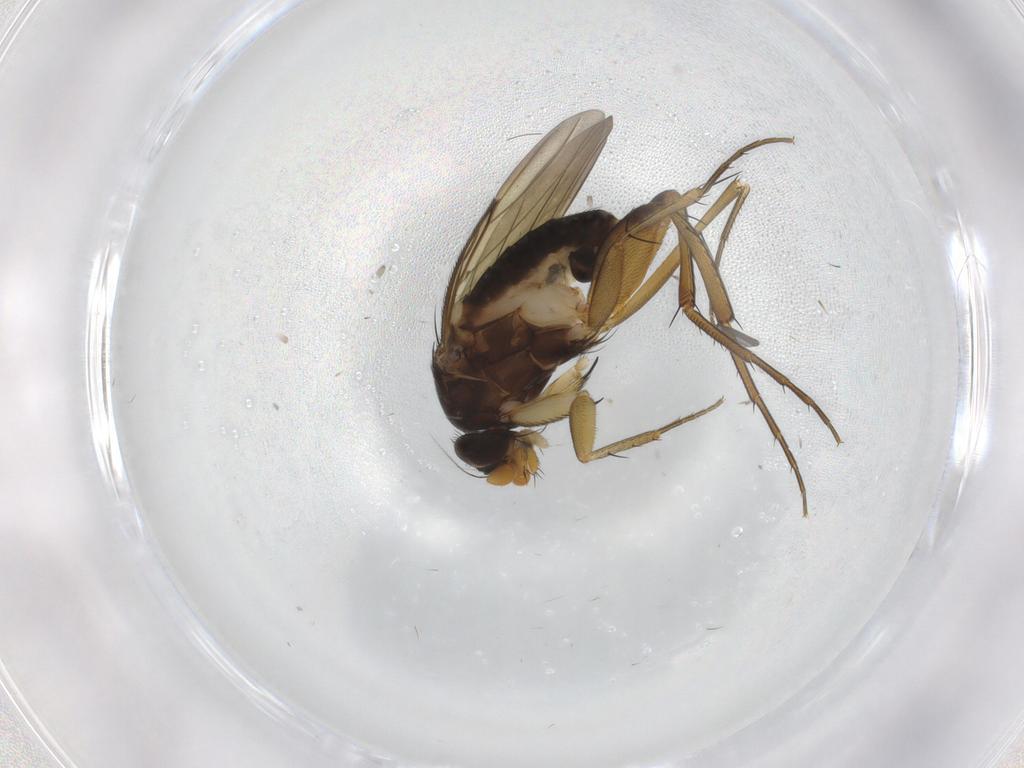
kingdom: Animalia
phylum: Arthropoda
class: Insecta
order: Diptera
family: Phoridae
